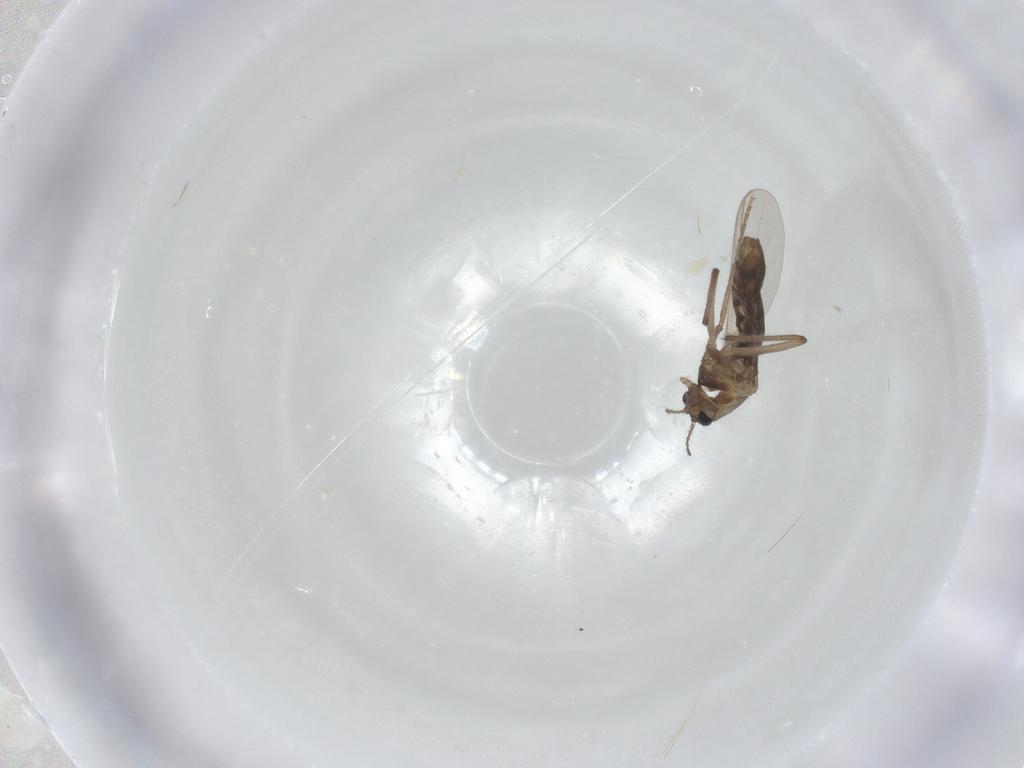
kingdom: Animalia
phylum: Arthropoda
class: Insecta
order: Diptera
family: Chironomidae
